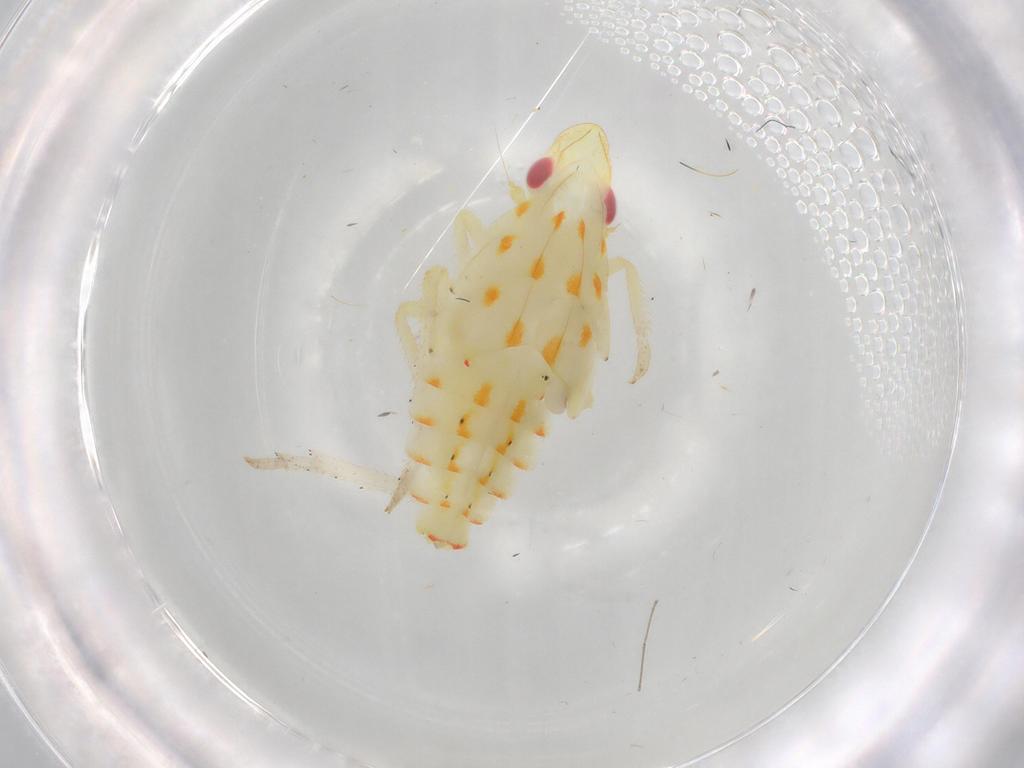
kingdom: Animalia
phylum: Arthropoda
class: Insecta
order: Hemiptera
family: Tropiduchidae
